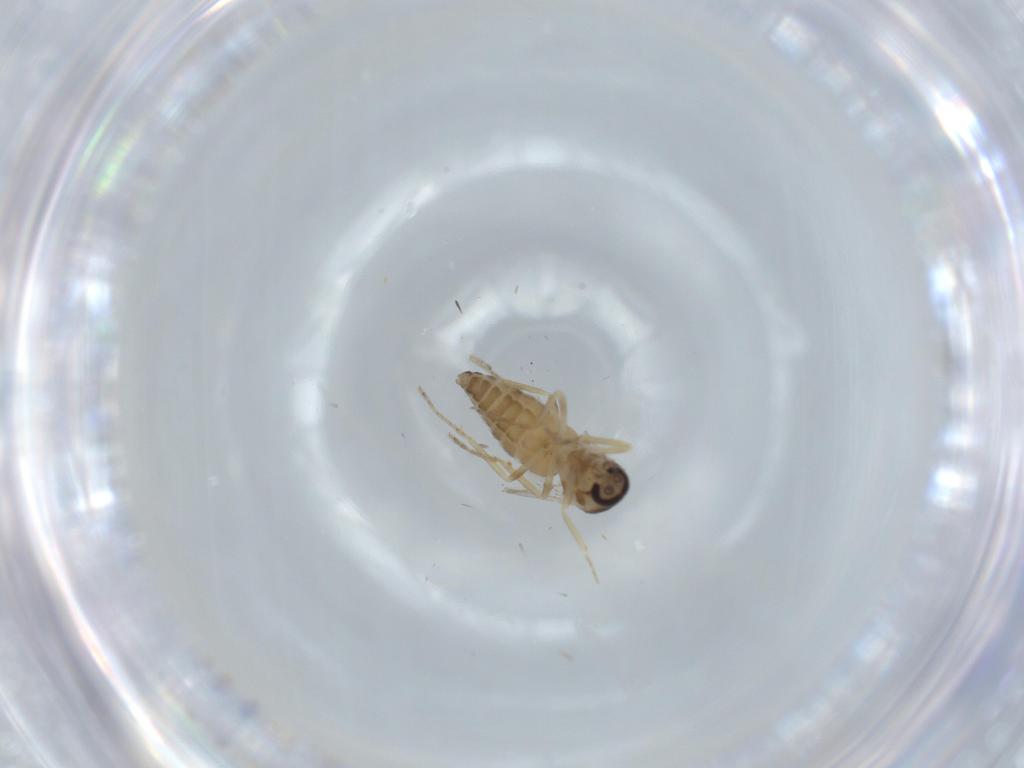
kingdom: Animalia
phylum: Arthropoda
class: Insecta
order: Diptera
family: Ceratopogonidae
